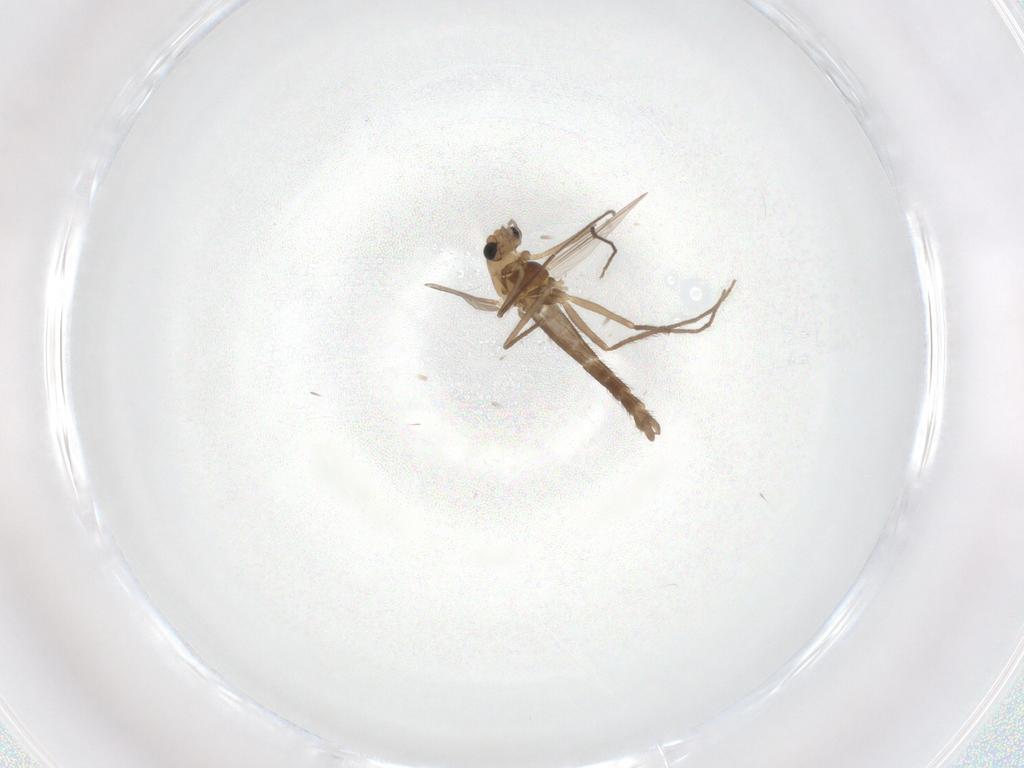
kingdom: Animalia
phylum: Arthropoda
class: Insecta
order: Diptera
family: Chironomidae
